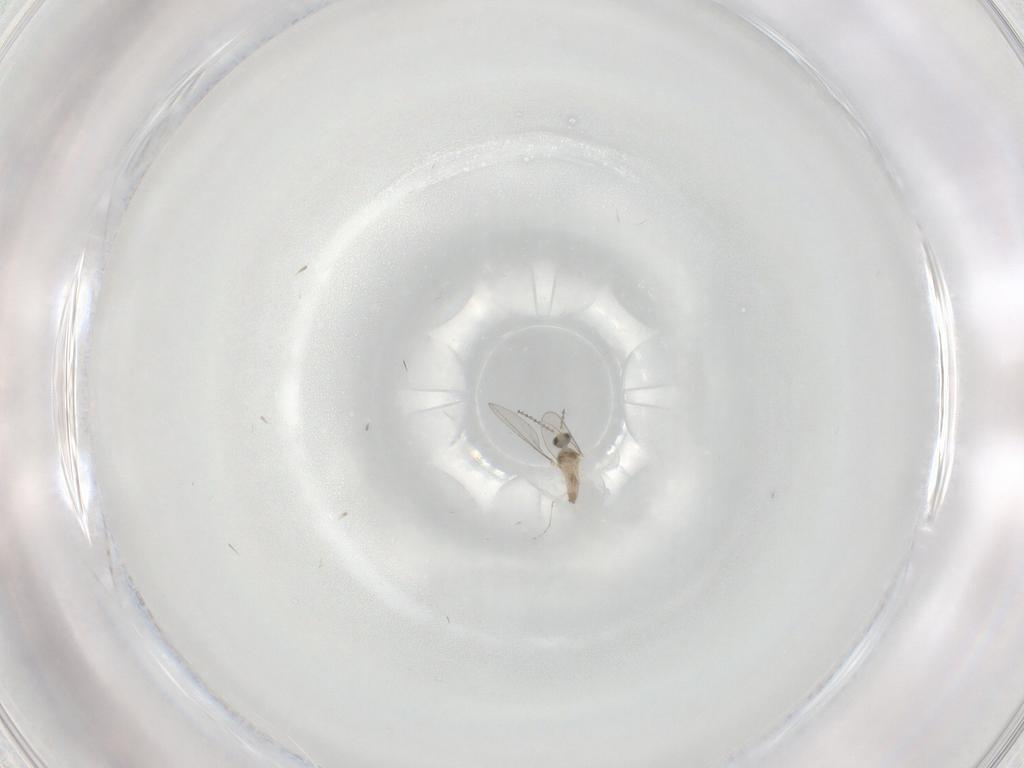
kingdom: Animalia
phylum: Arthropoda
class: Insecta
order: Diptera
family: Cecidomyiidae
